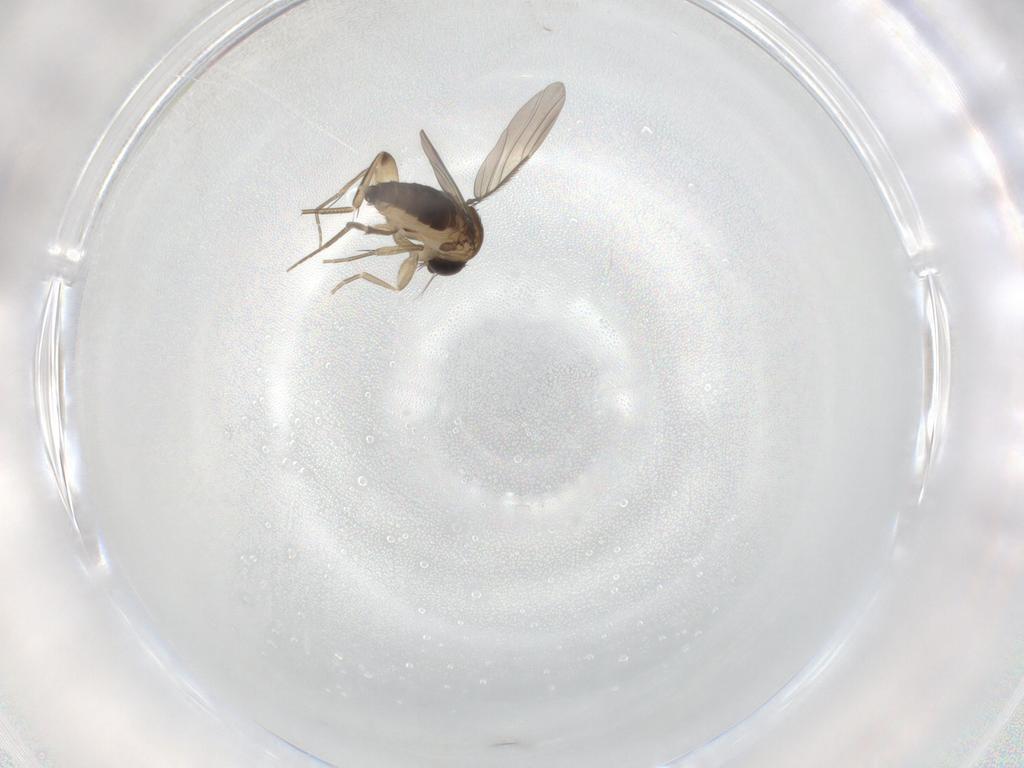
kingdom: Animalia
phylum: Arthropoda
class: Insecta
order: Diptera
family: Phoridae
